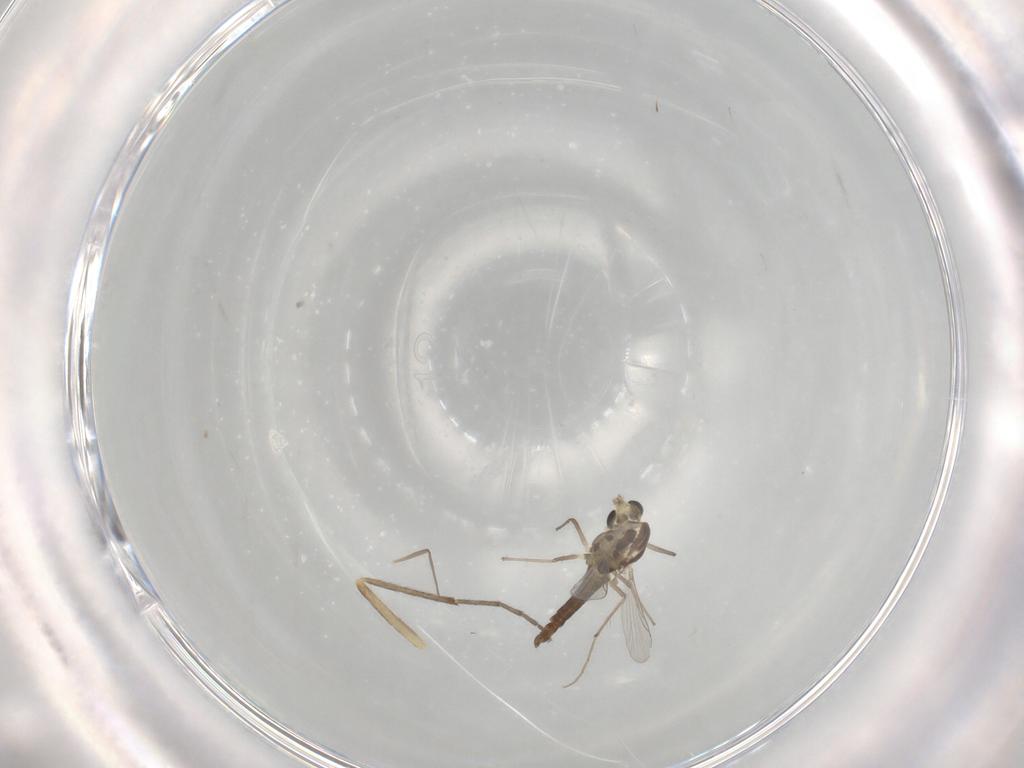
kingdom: Animalia
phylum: Arthropoda
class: Insecta
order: Diptera
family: Chironomidae
